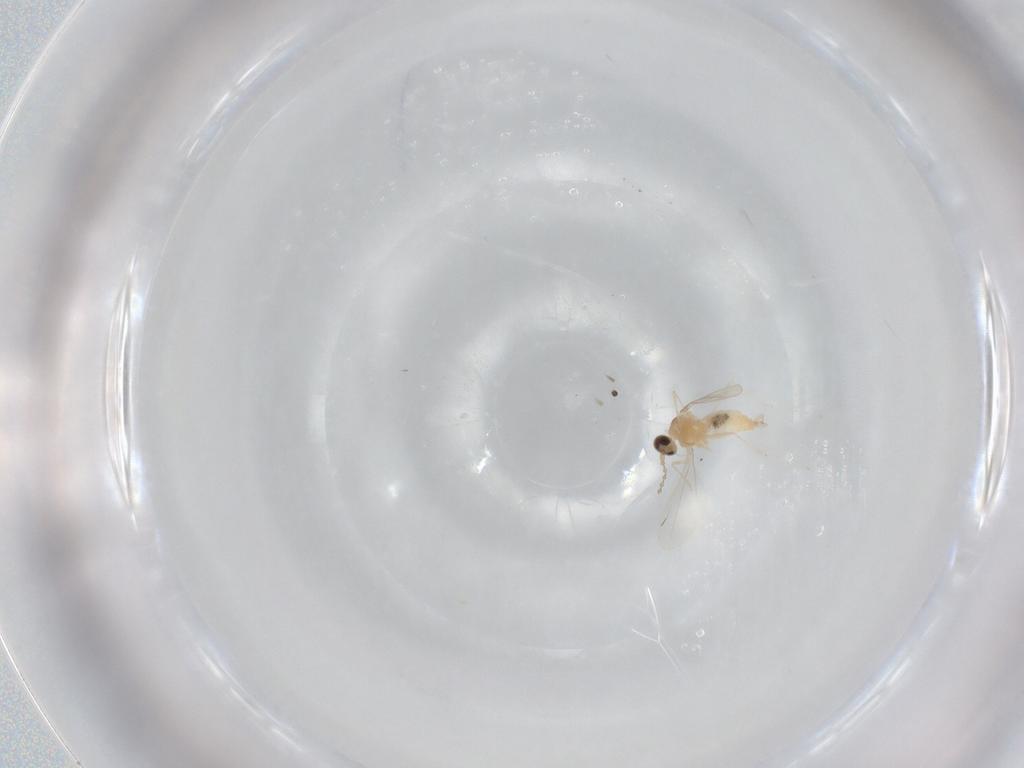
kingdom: Animalia
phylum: Arthropoda
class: Insecta
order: Diptera
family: Cecidomyiidae
